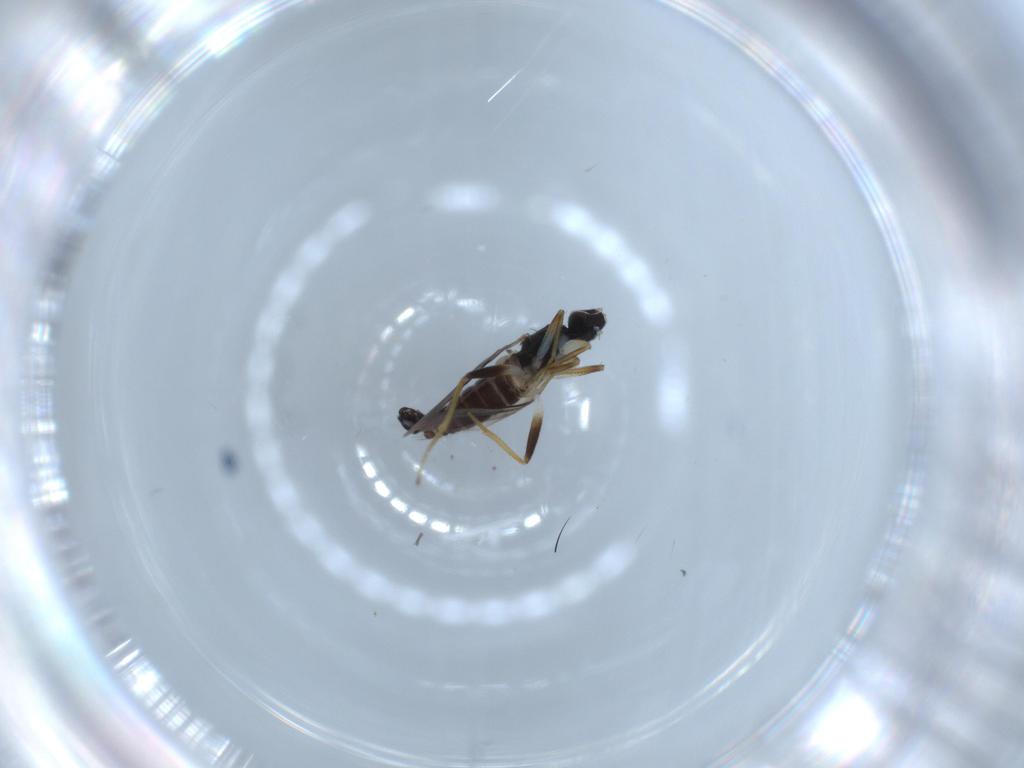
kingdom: Animalia
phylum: Arthropoda
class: Insecta
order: Diptera
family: Hybotidae
